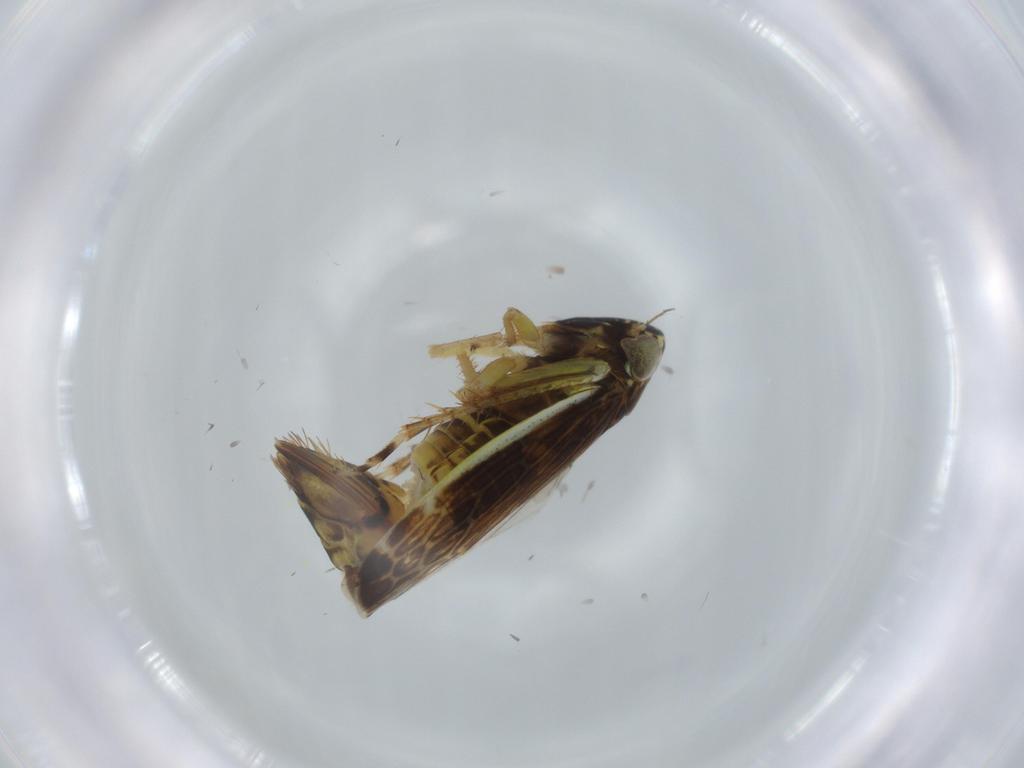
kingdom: Animalia
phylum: Arthropoda
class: Insecta
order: Hemiptera
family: Cicadellidae
